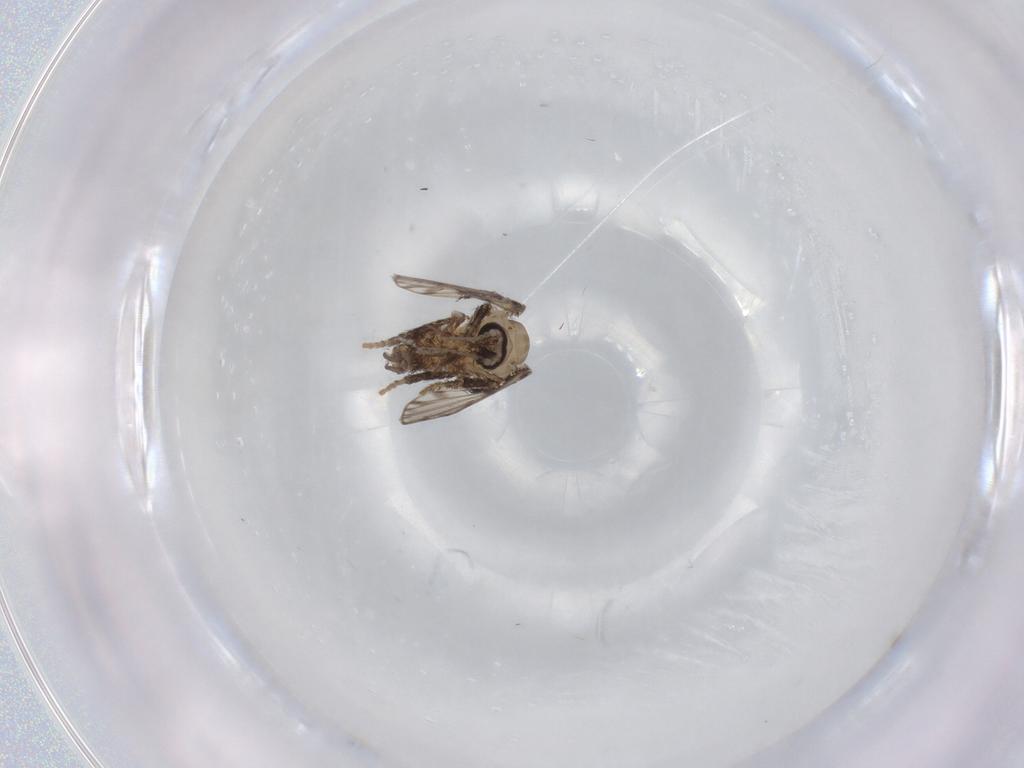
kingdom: Animalia
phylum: Arthropoda
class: Insecta
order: Diptera
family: Psychodidae
